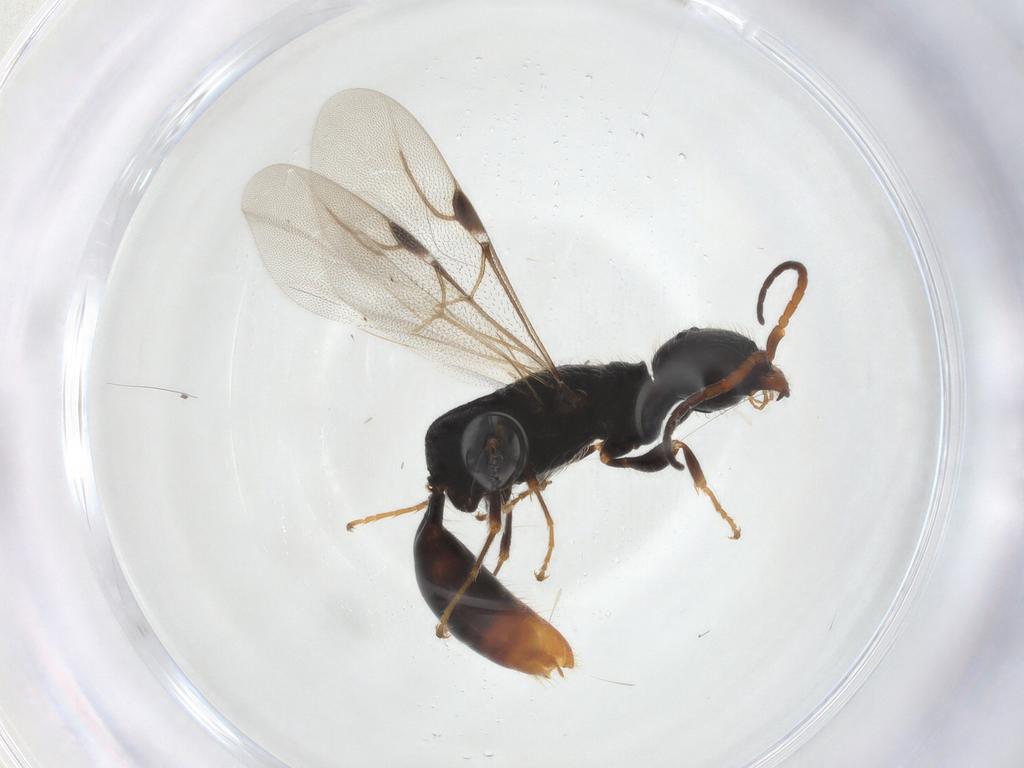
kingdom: Animalia
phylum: Arthropoda
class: Insecta
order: Hymenoptera
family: Bethylidae
